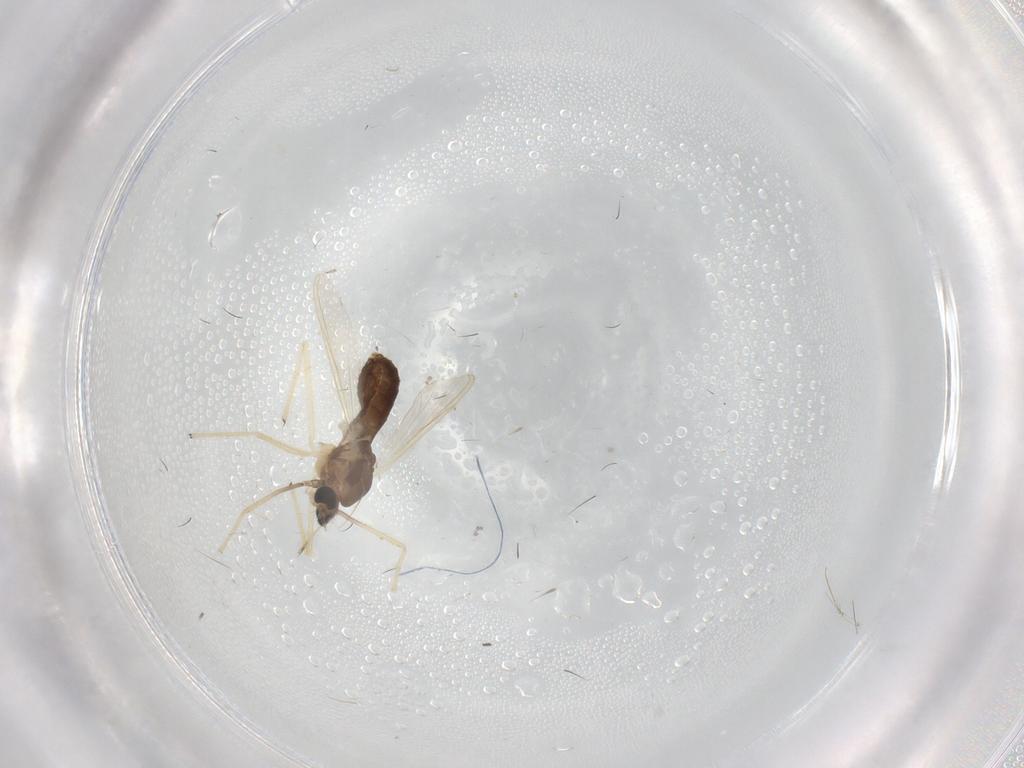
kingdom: Animalia
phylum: Arthropoda
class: Insecta
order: Diptera
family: Chironomidae
